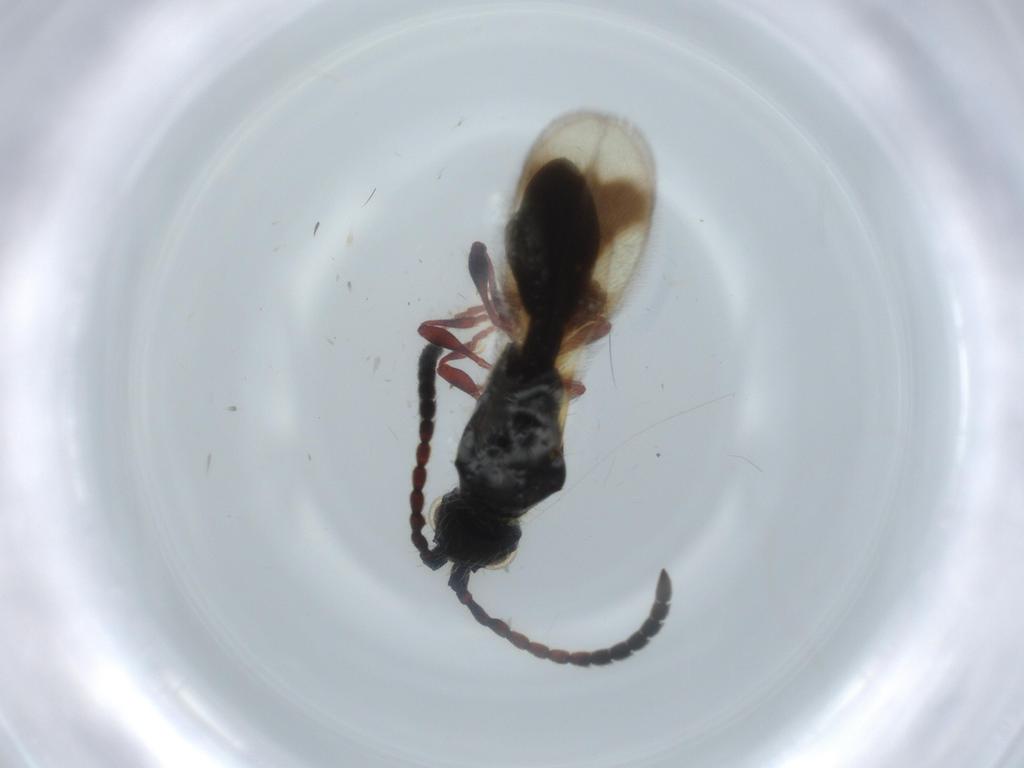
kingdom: Animalia
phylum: Arthropoda
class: Insecta
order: Hymenoptera
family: Diapriidae
